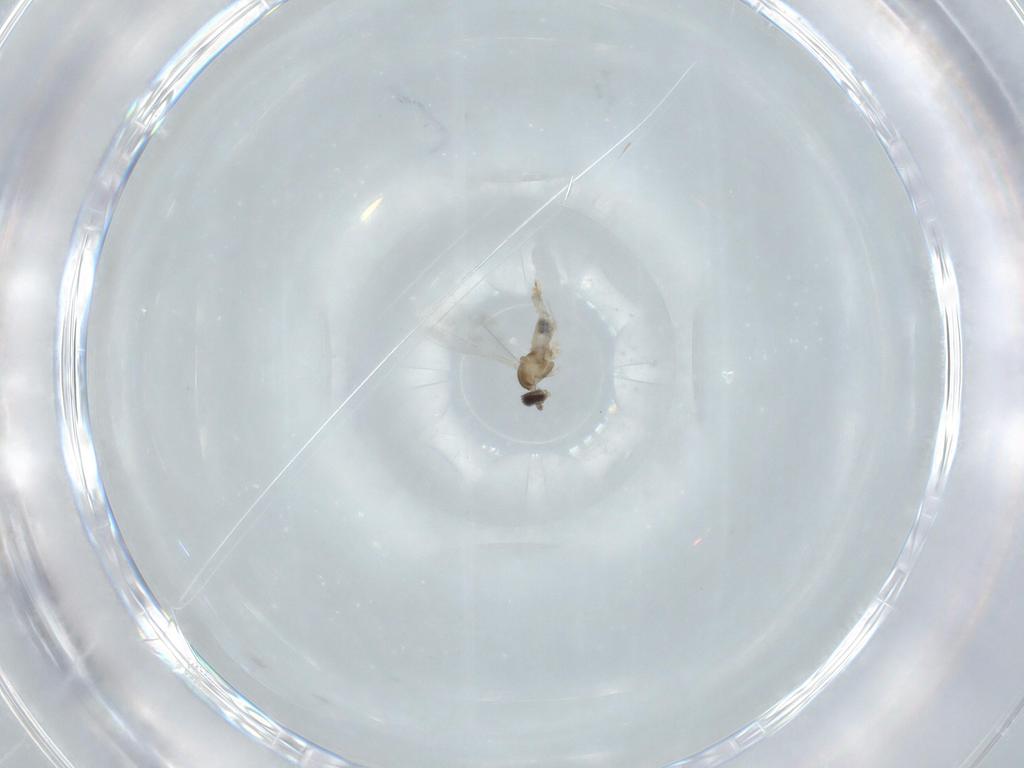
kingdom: Animalia
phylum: Arthropoda
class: Insecta
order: Diptera
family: Cecidomyiidae
